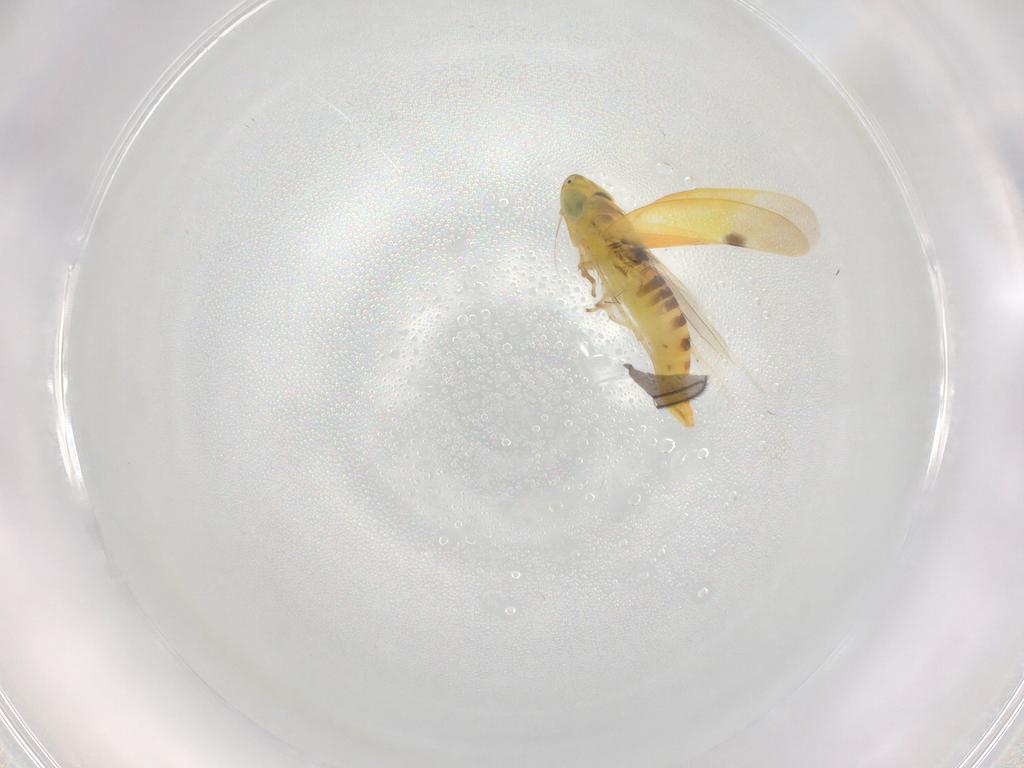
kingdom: Animalia
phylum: Arthropoda
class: Insecta
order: Hemiptera
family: Cicadellidae
